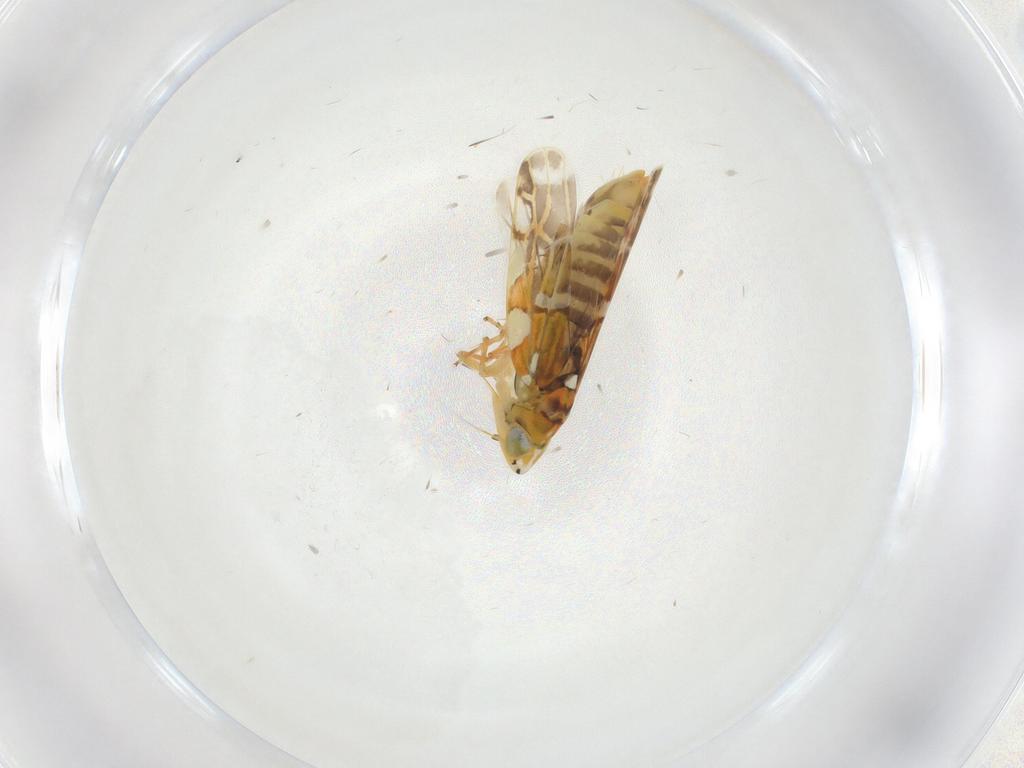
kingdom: Animalia
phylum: Arthropoda
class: Insecta
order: Hemiptera
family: Cicadellidae
